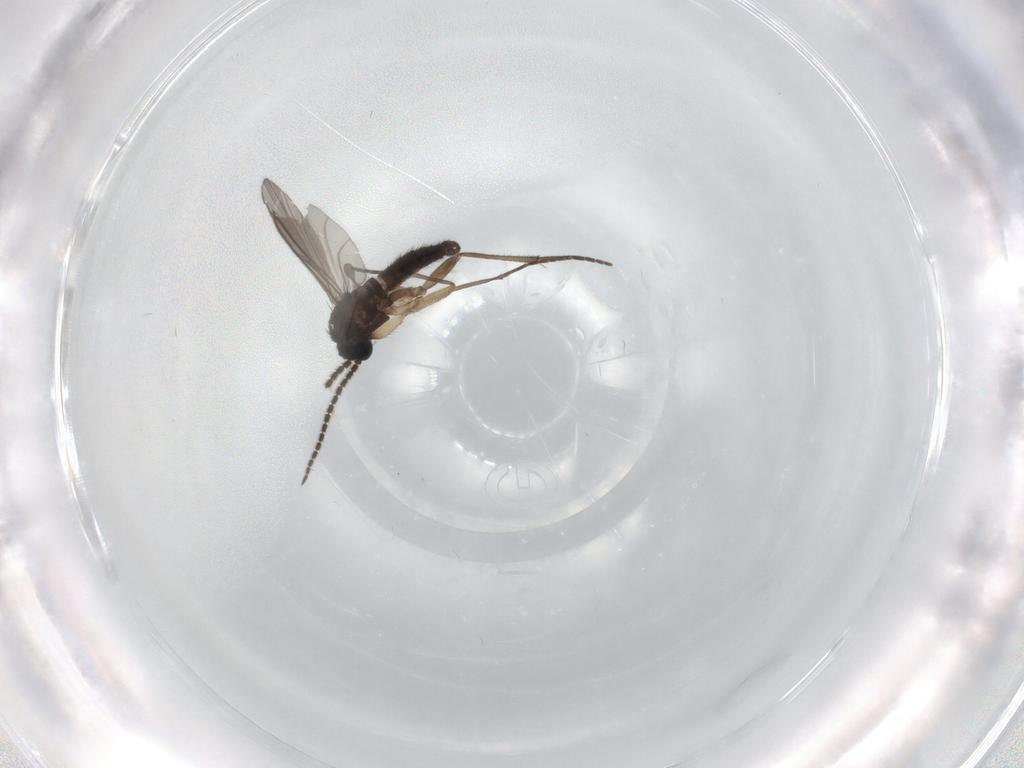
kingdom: Animalia
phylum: Arthropoda
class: Insecta
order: Diptera
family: Sciaridae
